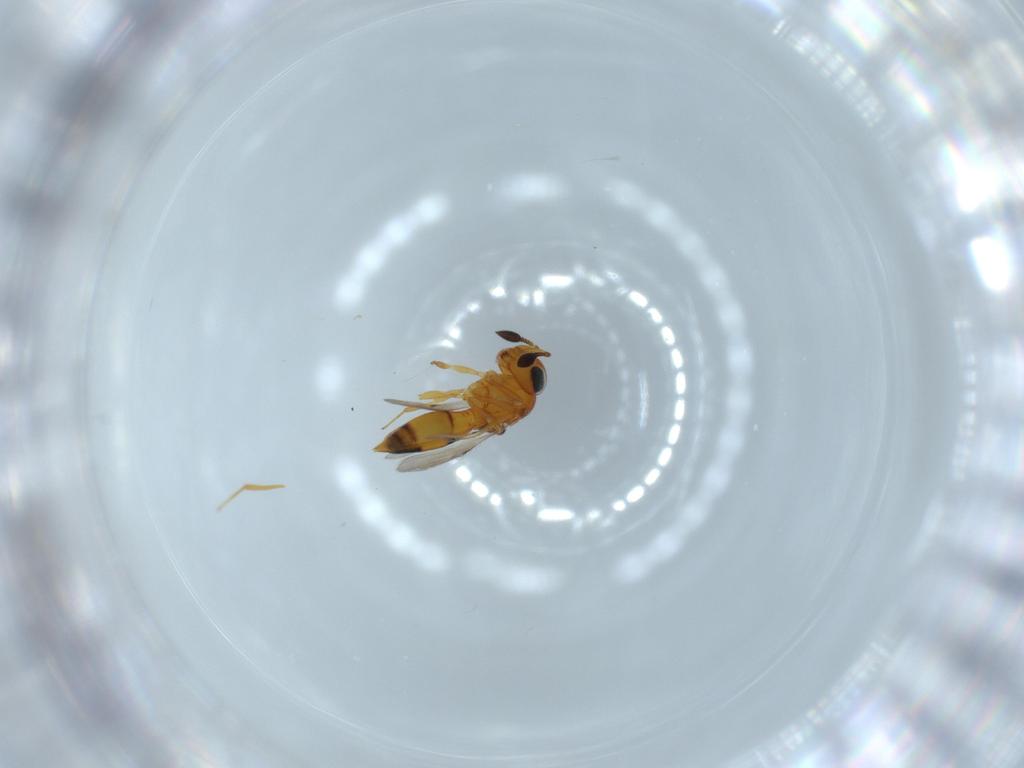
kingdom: Animalia
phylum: Arthropoda
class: Insecta
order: Hymenoptera
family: Scelionidae
